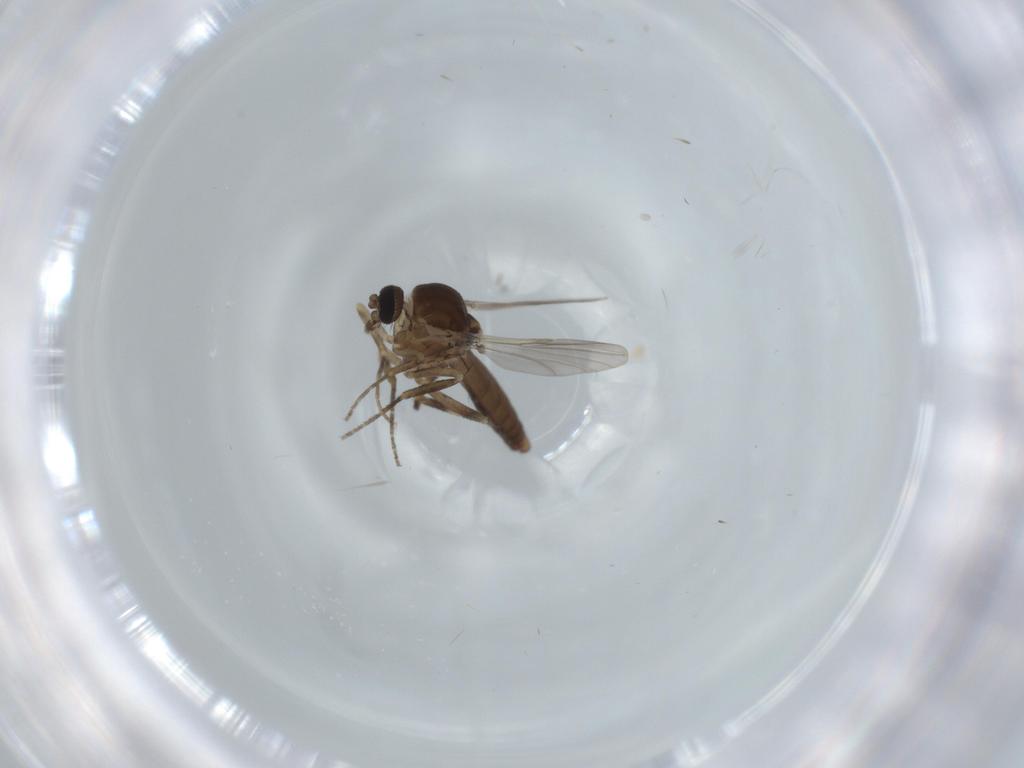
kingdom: Animalia
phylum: Arthropoda
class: Insecta
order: Diptera
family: Ceratopogonidae
